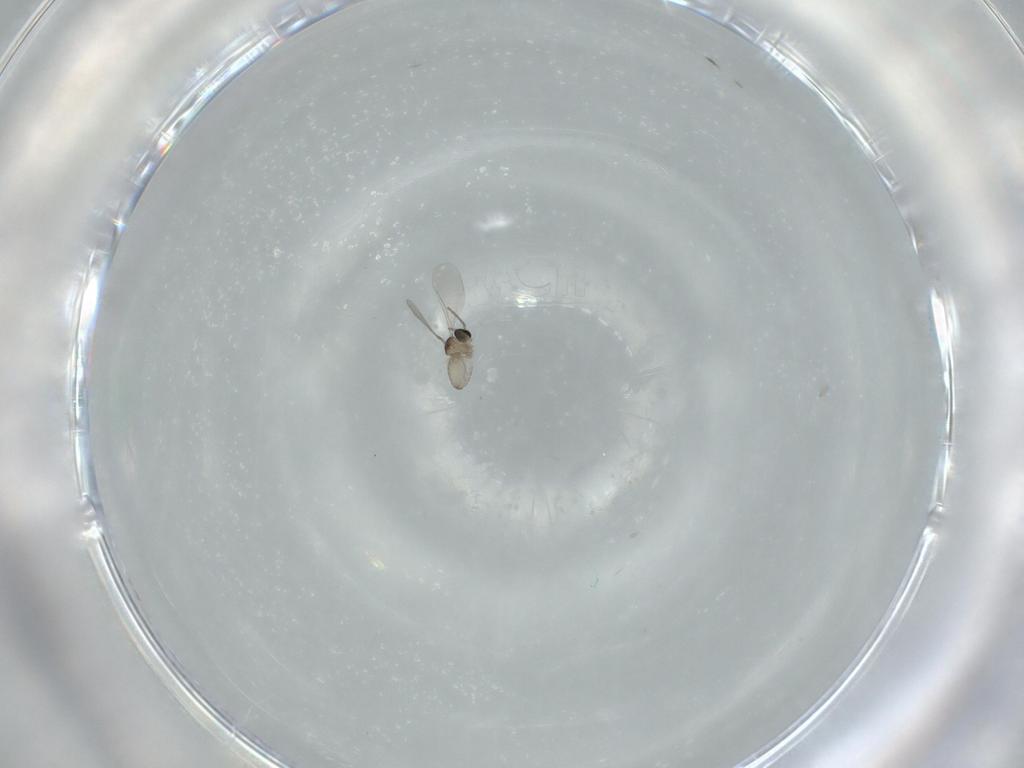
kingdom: Animalia
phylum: Arthropoda
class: Insecta
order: Diptera
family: Cecidomyiidae
